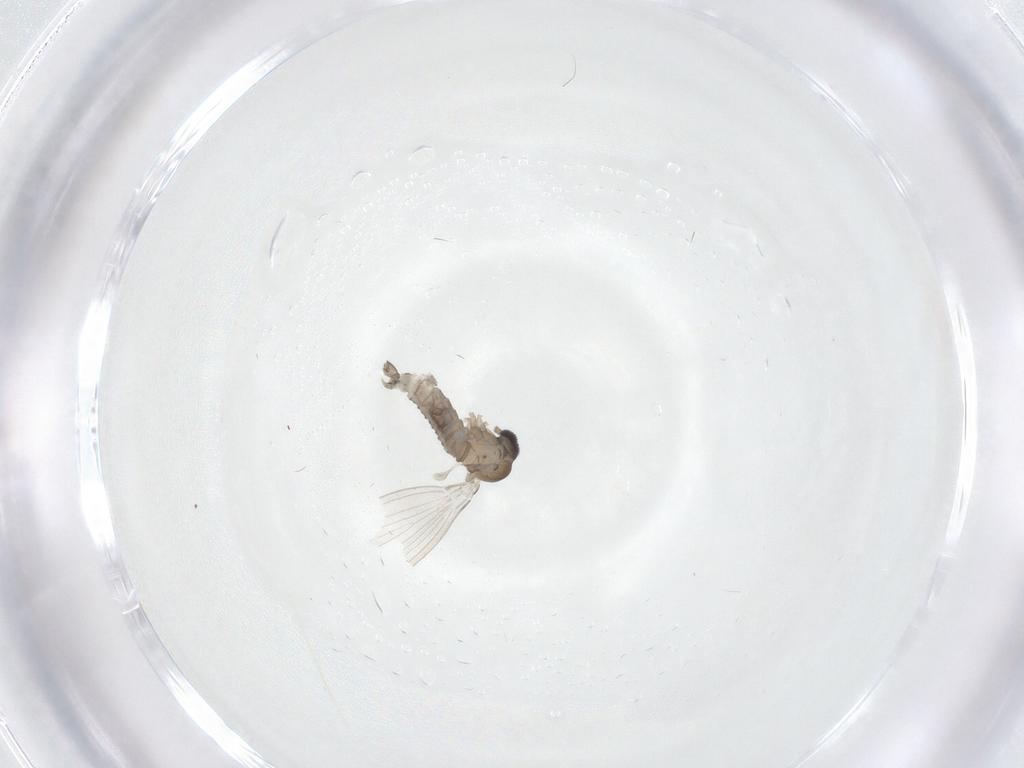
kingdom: Animalia
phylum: Arthropoda
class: Insecta
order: Diptera
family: Psychodidae
